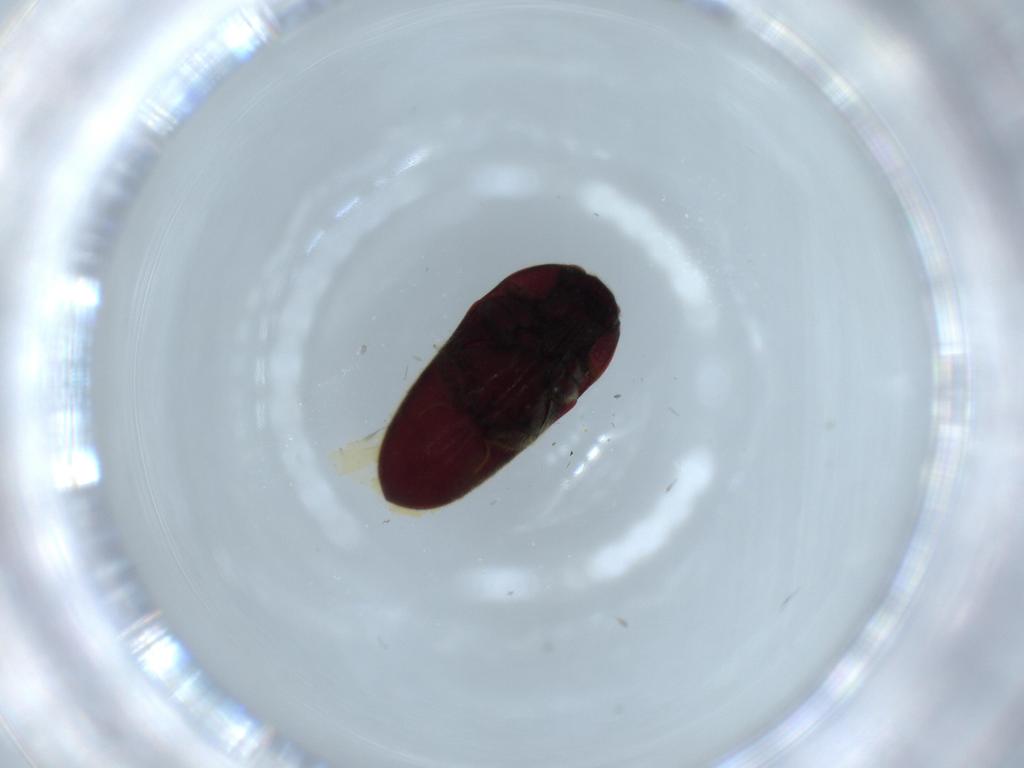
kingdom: Animalia
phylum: Arthropoda
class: Insecta
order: Coleoptera
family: Throscidae
